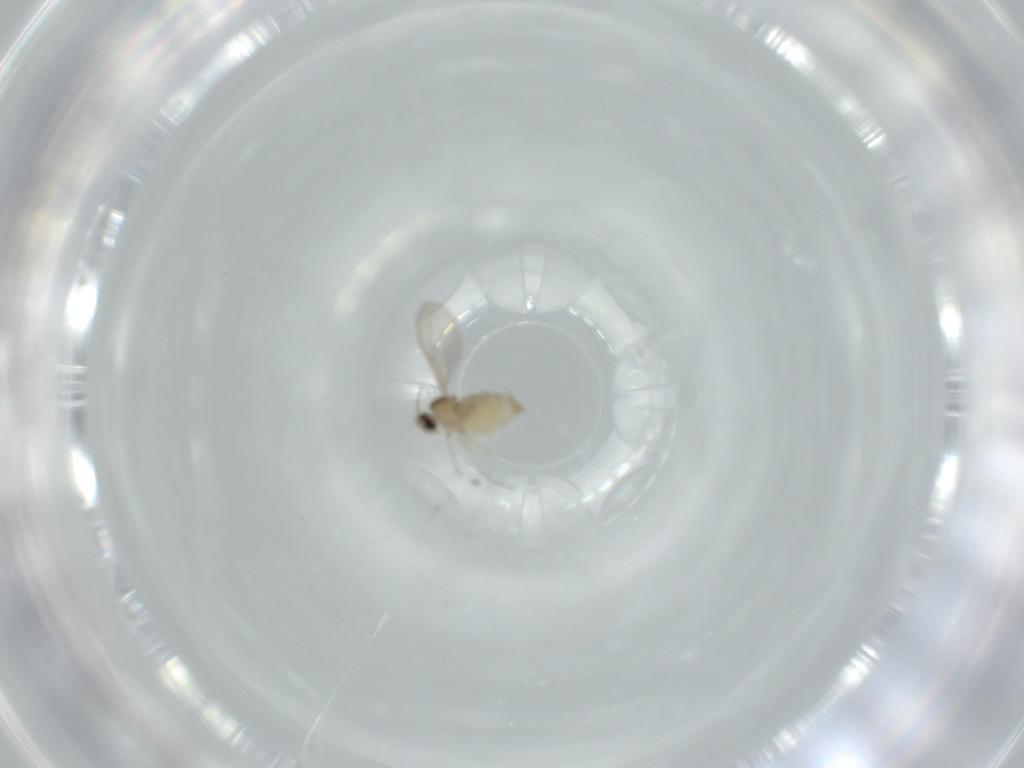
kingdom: Animalia
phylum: Arthropoda
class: Insecta
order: Diptera
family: Cecidomyiidae
